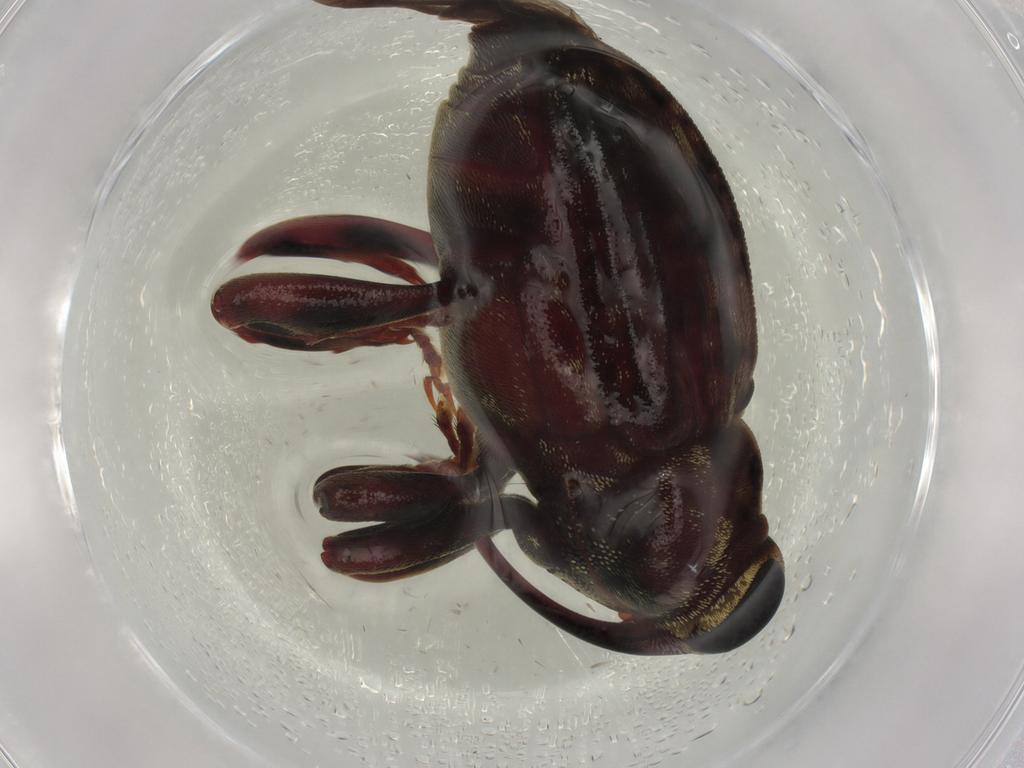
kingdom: Animalia
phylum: Arthropoda
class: Insecta
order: Coleoptera
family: Curculionidae
